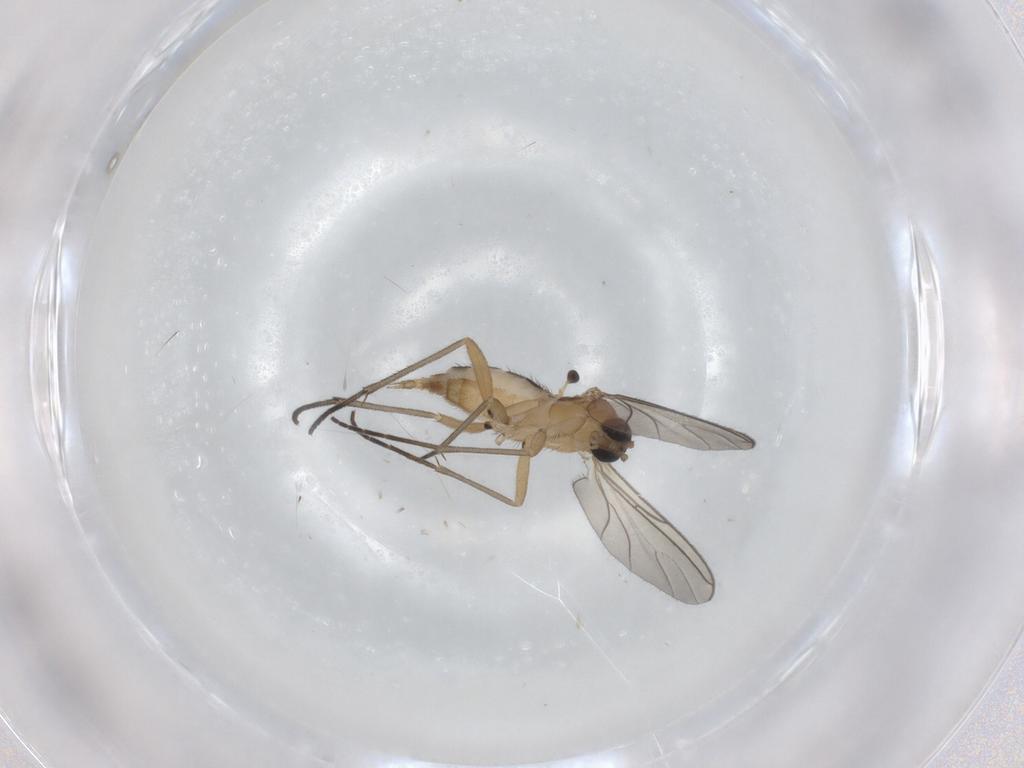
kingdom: Animalia
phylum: Arthropoda
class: Insecta
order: Diptera
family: Sciaridae
